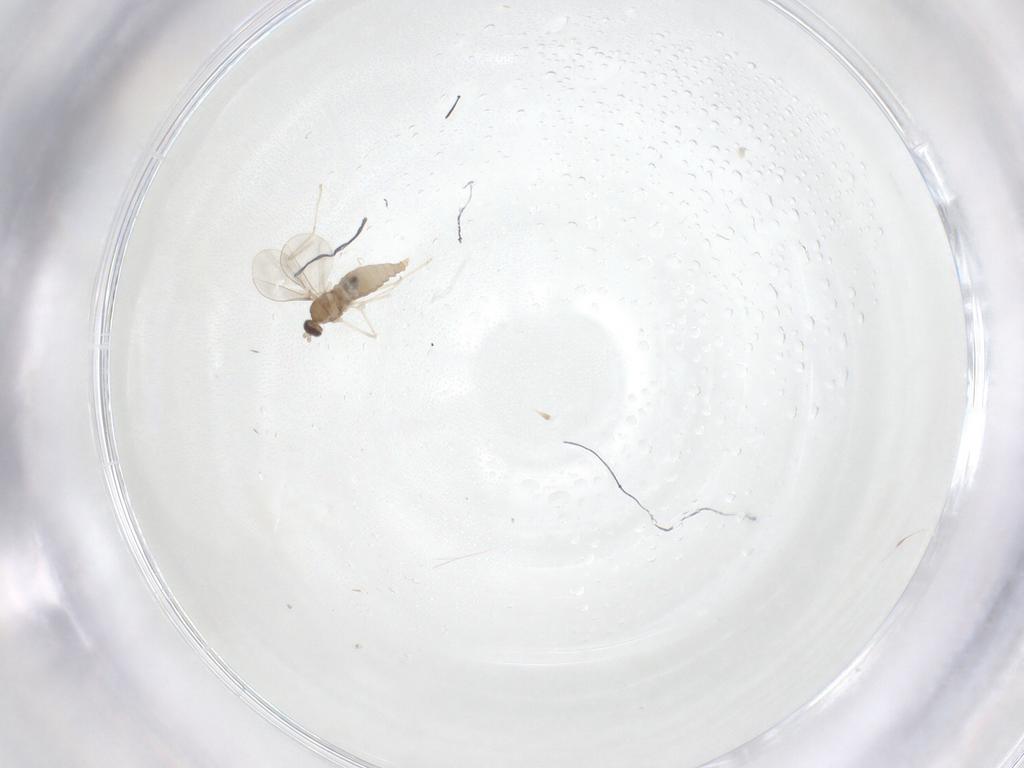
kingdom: Animalia
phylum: Arthropoda
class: Insecta
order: Diptera
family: Cecidomyiidae
